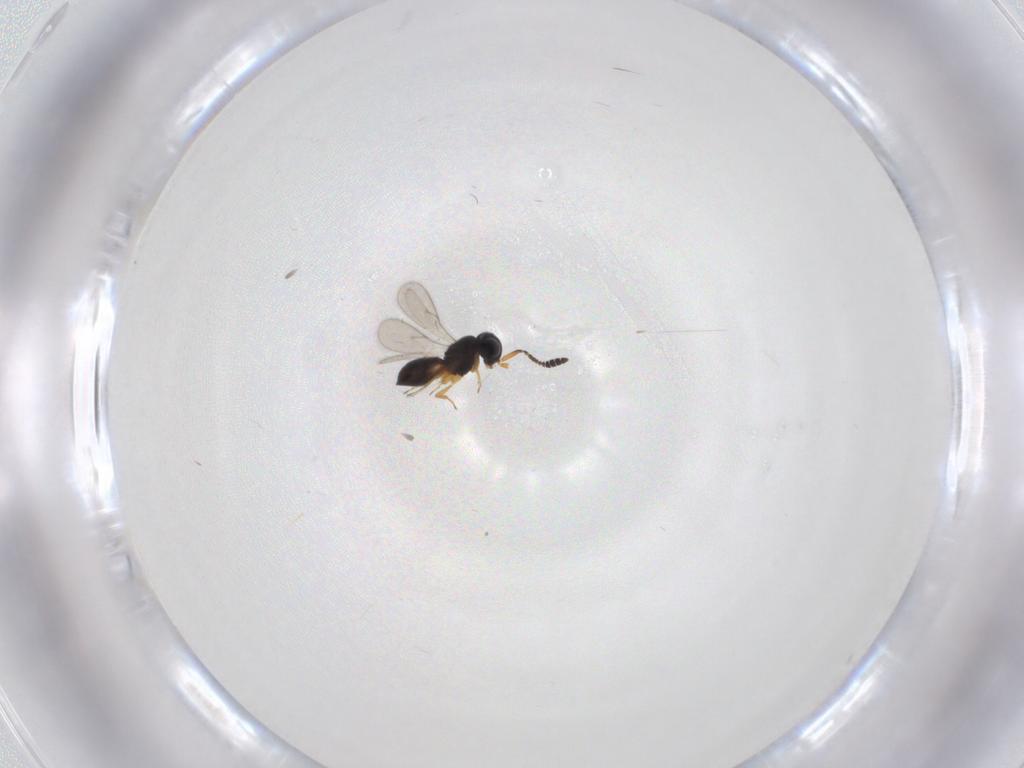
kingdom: Animalia
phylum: Arthropoda
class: Insecta
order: Hymenoptera
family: Scelionidae
